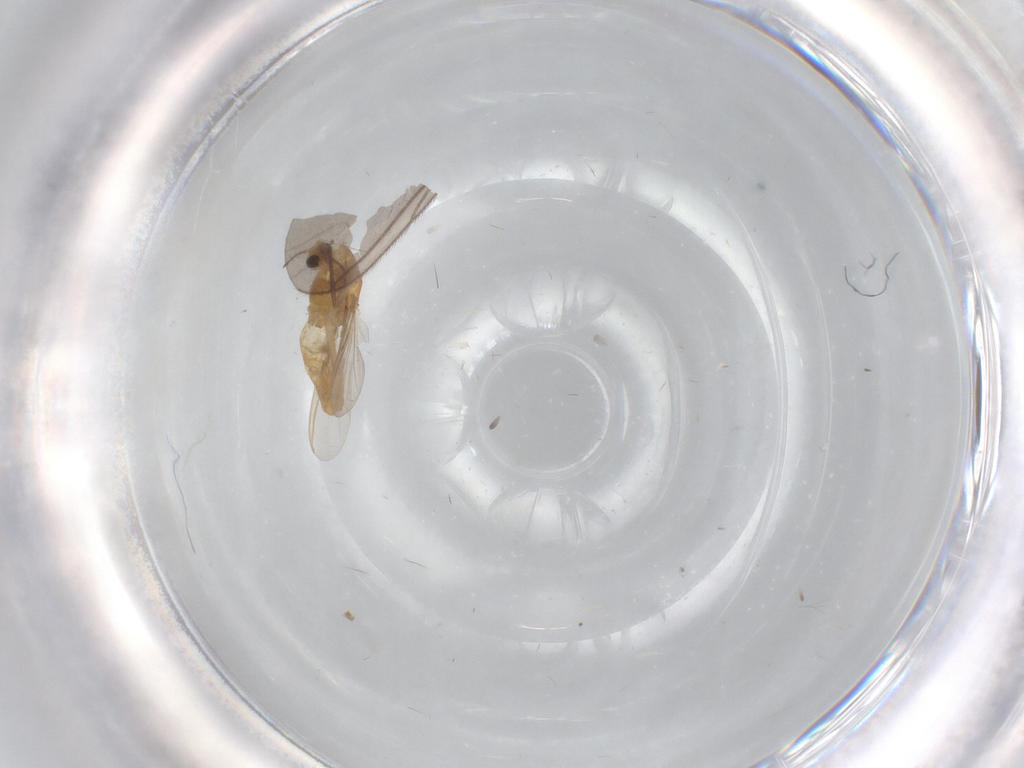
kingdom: Animalia
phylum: Arthropoda
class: Insecta
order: Diptera
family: Chironomidae
